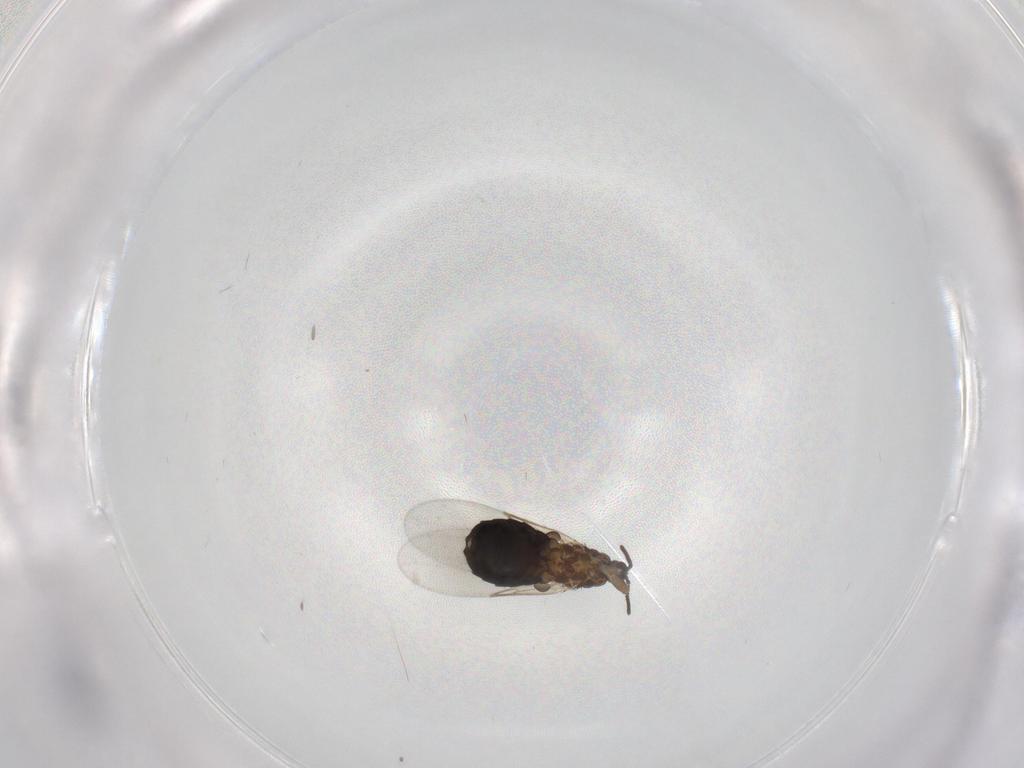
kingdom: Animalia
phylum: Arthropoda
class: Insecta
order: Diptera
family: Scatopsidae
